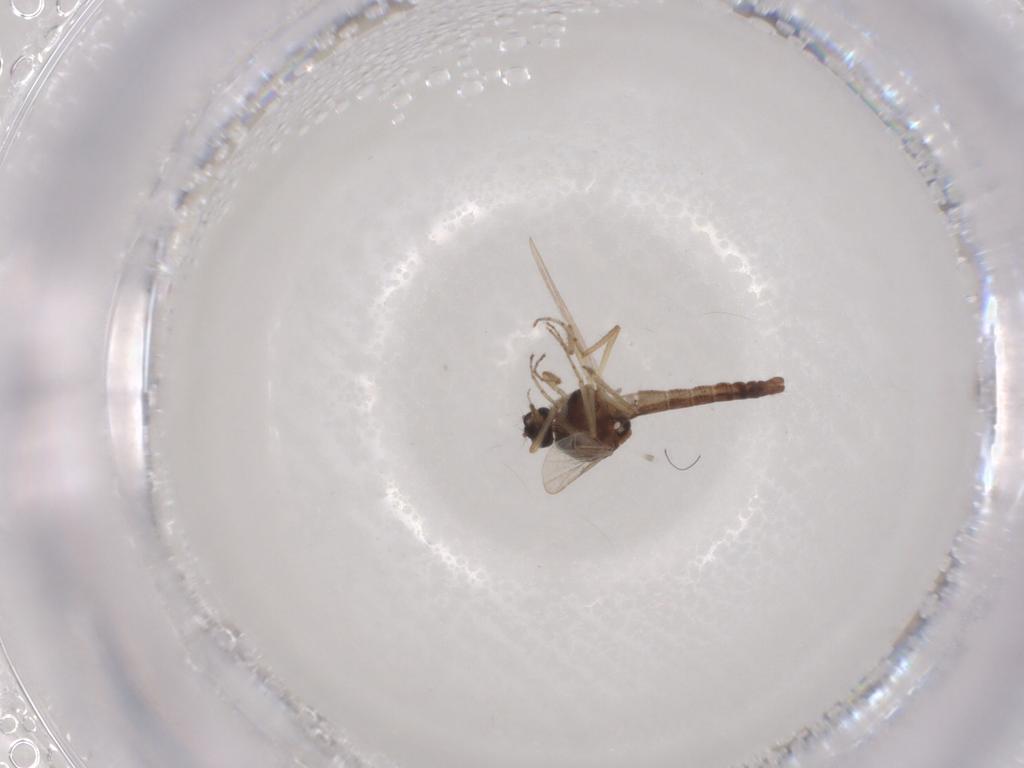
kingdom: Animalia
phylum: Arthropoda
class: Insecta
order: Diptera
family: Ceratopogonidae
